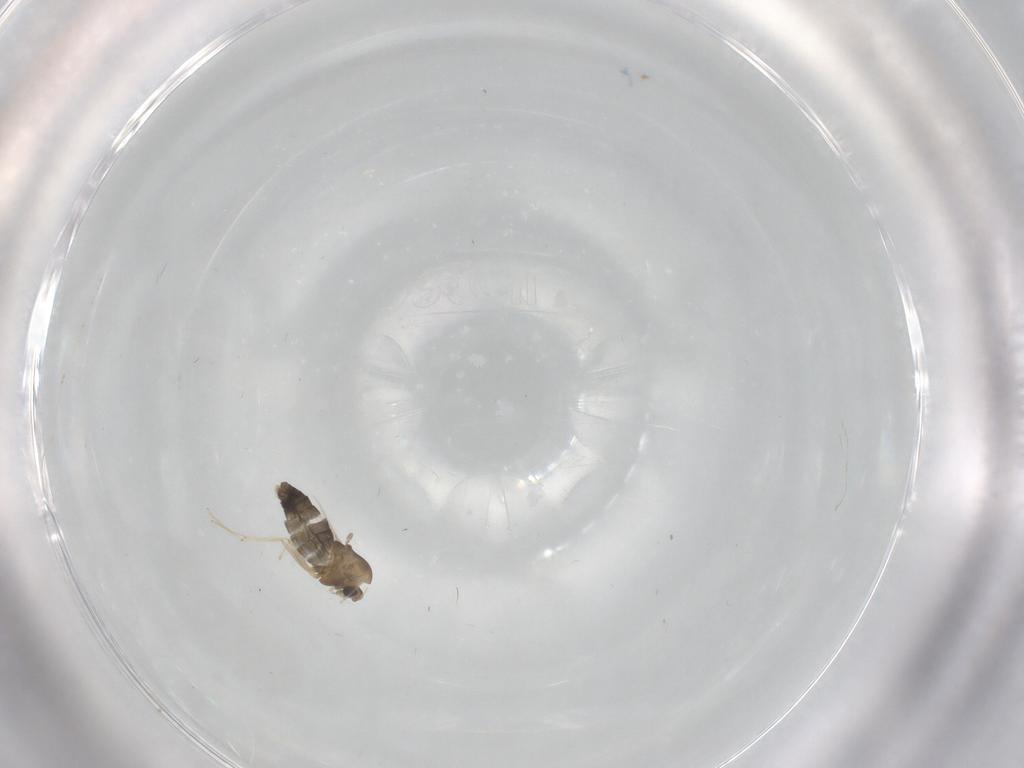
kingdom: Animalia
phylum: Arthropoda
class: Insecta
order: Diptera
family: Chironomidae
